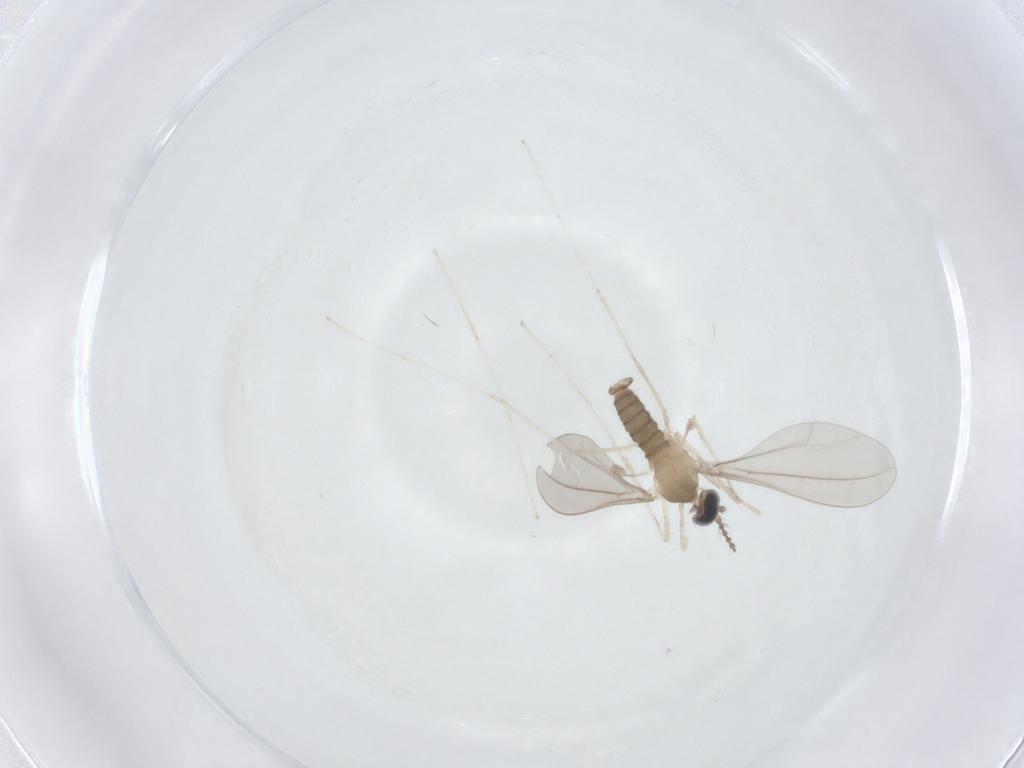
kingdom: Animalia
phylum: Arthropoda
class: Insecta
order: Diptera
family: Cecidomyiidae
